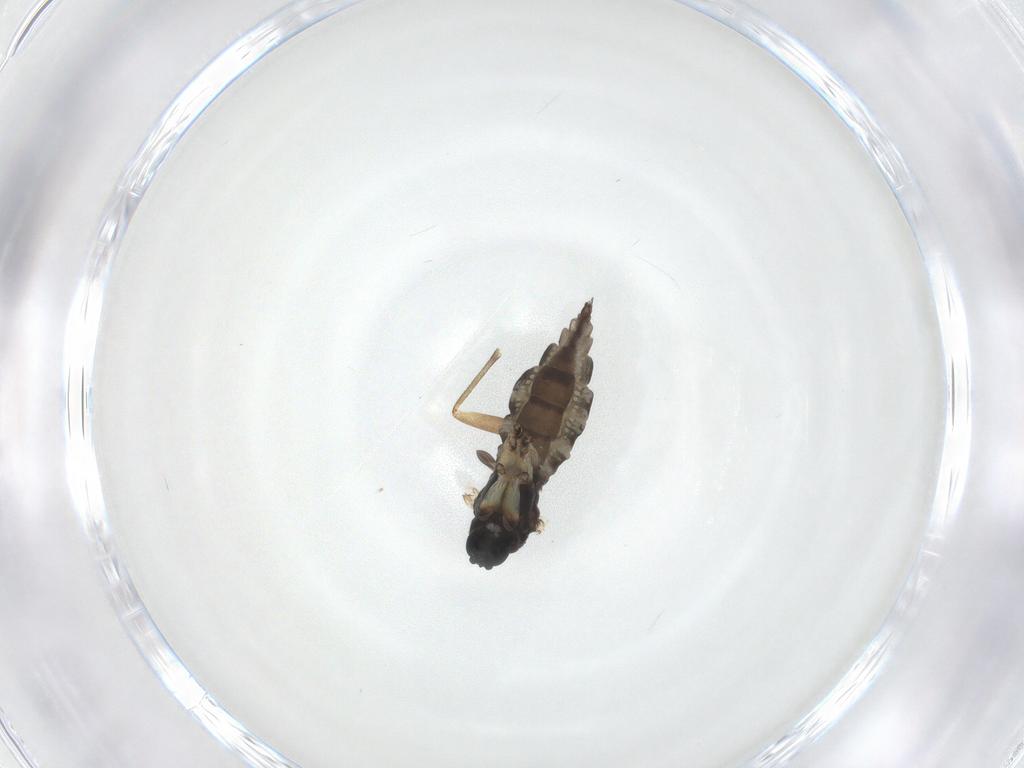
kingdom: Animalia
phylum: Arthropoda
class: Insecta
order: Diptera
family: Sciaridae
